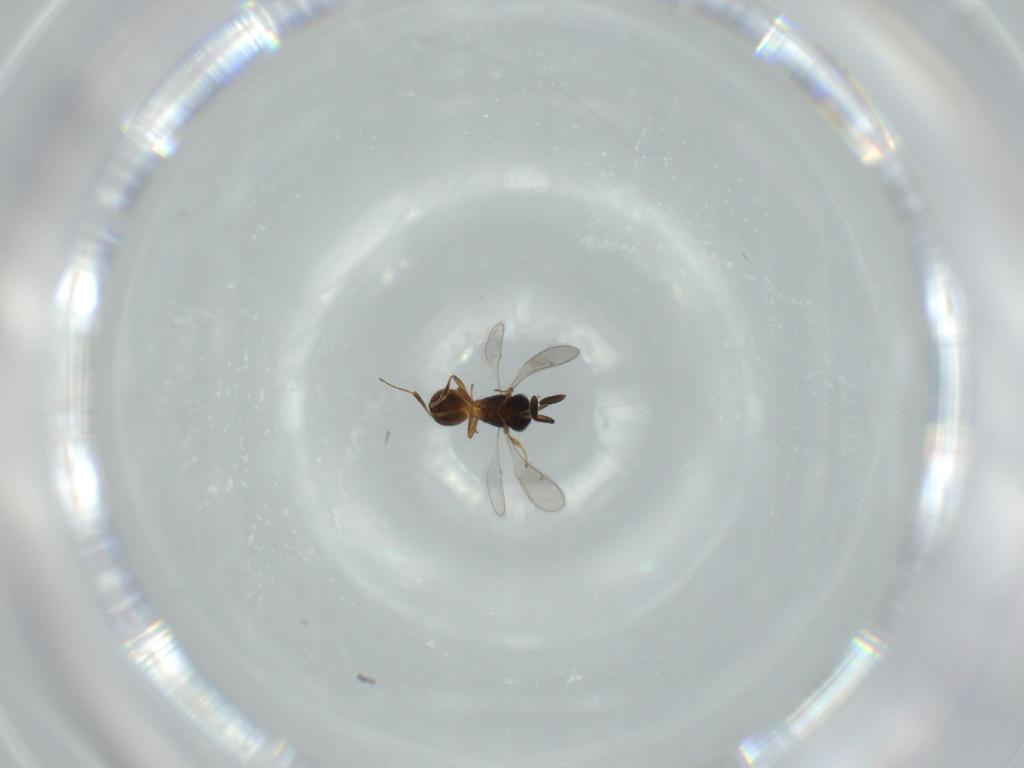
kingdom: Animalia
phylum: Arthropoda
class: Insecta
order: Hymenoptera
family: Scelionidae
